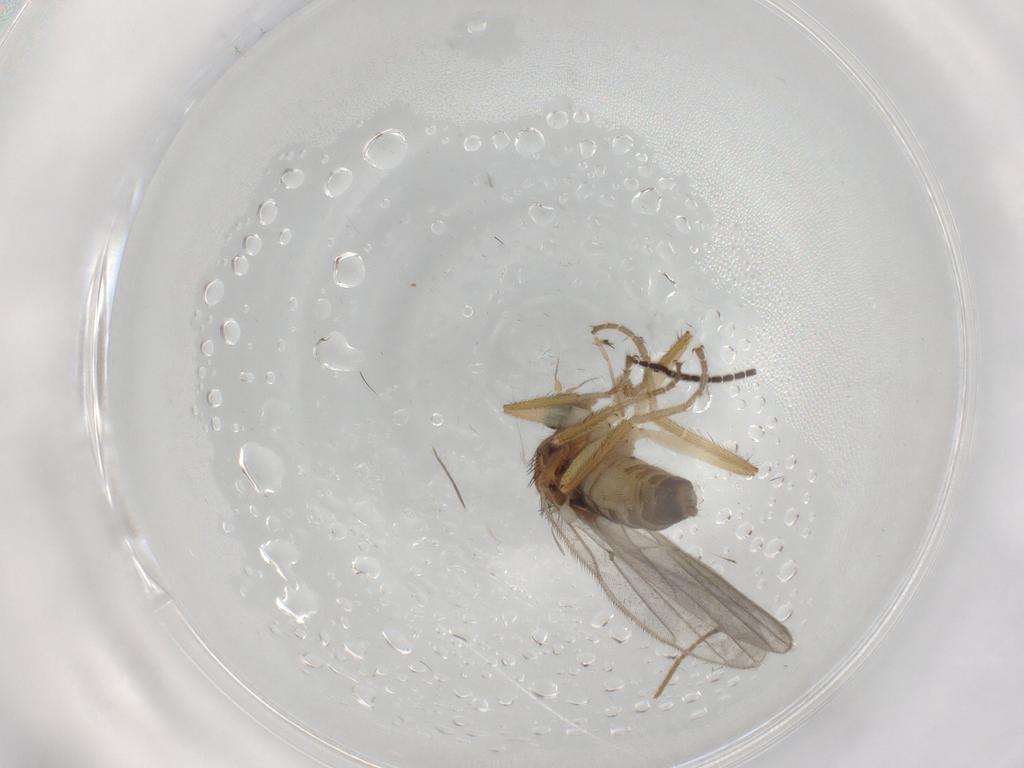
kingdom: Animalia
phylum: Arthropoda
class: Insecta
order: Diptera
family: Chironomidae
